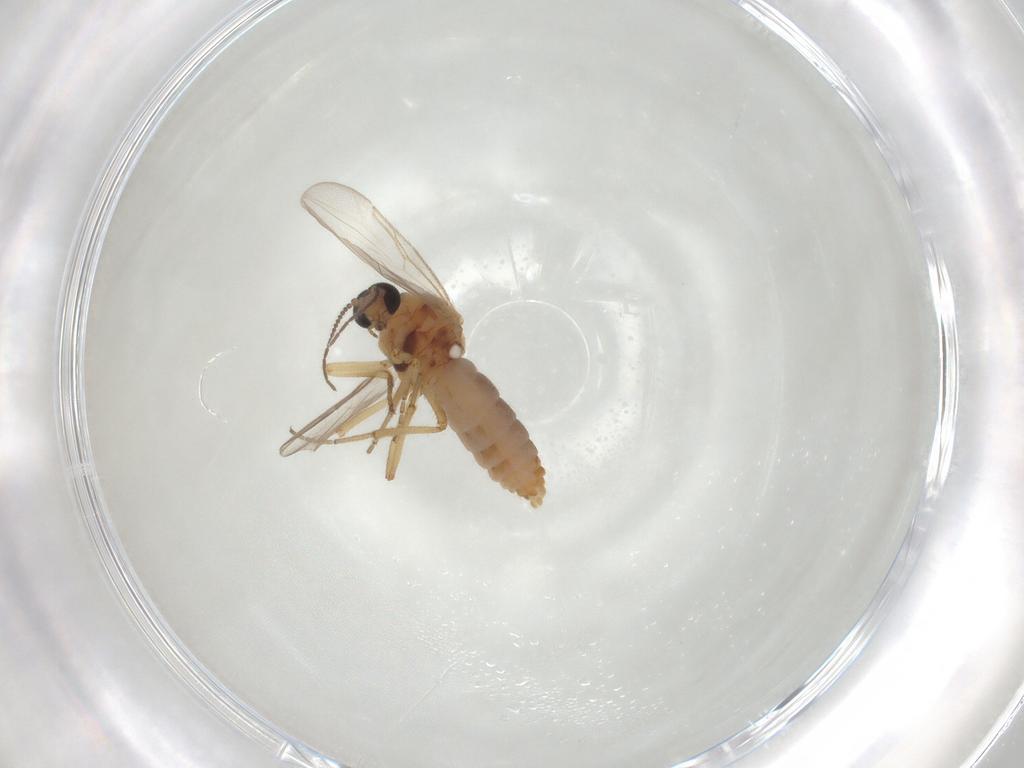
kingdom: Animalia
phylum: Arthropoda
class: Insecta
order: Diptera
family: Ceratopogonidae
